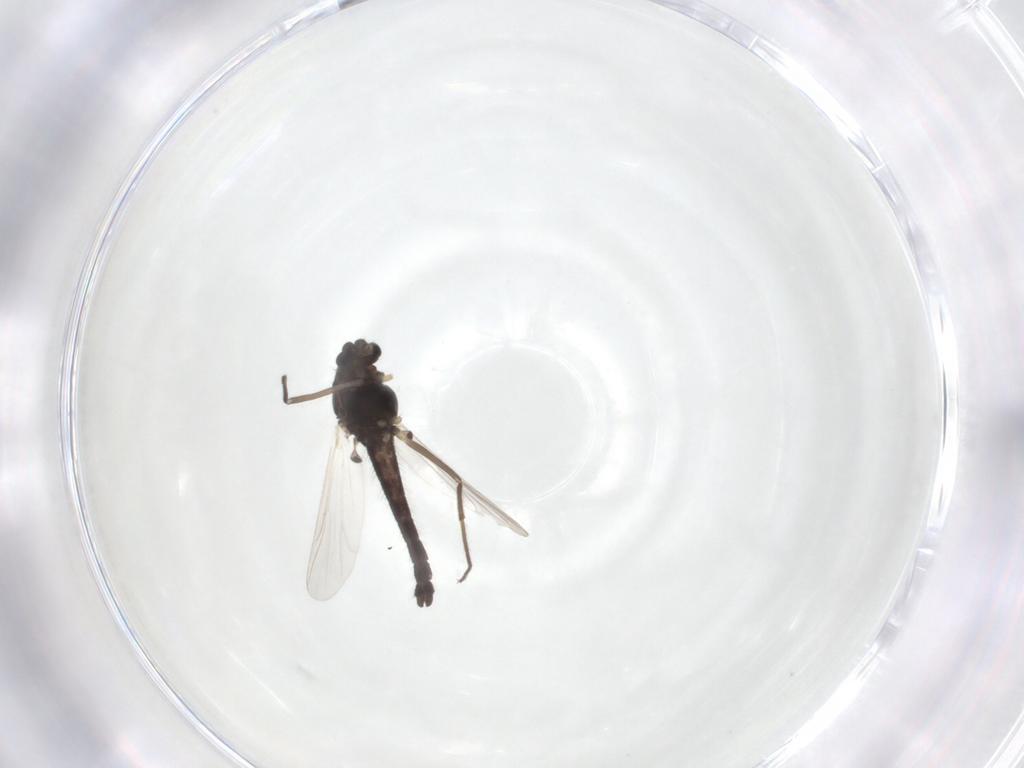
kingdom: Animalia
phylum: Arthropoda
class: Insecta
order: Diptera
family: Chironomidae
